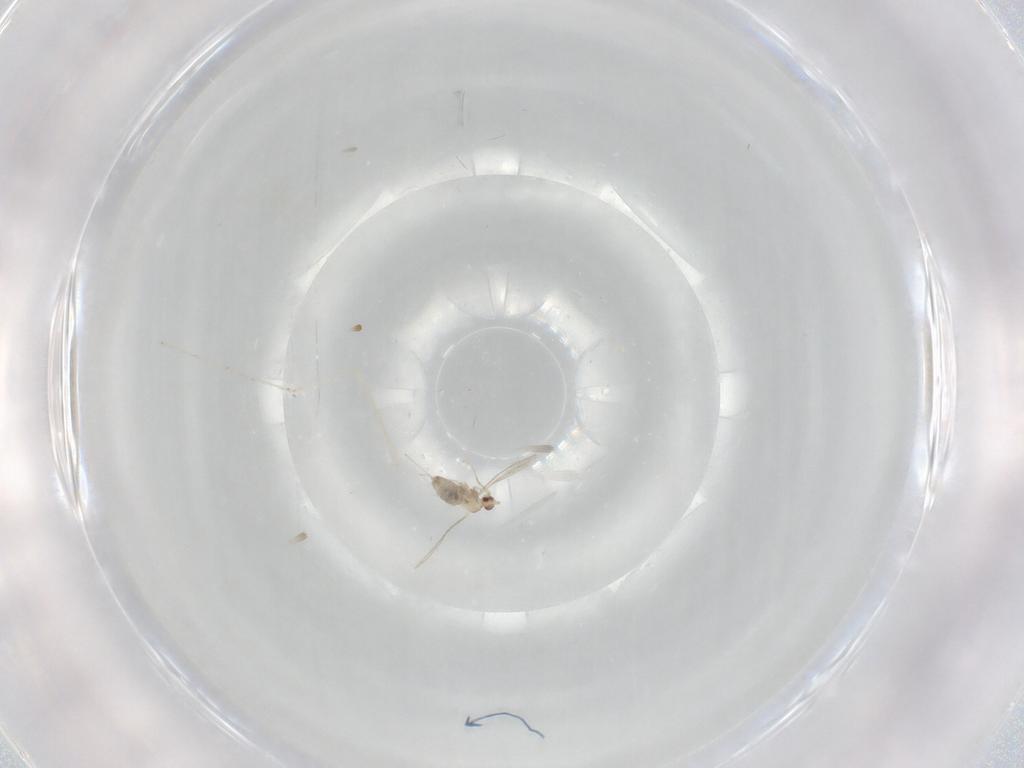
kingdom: Animalia
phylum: Arthropoda
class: Insecta
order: Diptera
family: Cecidomyiidae
